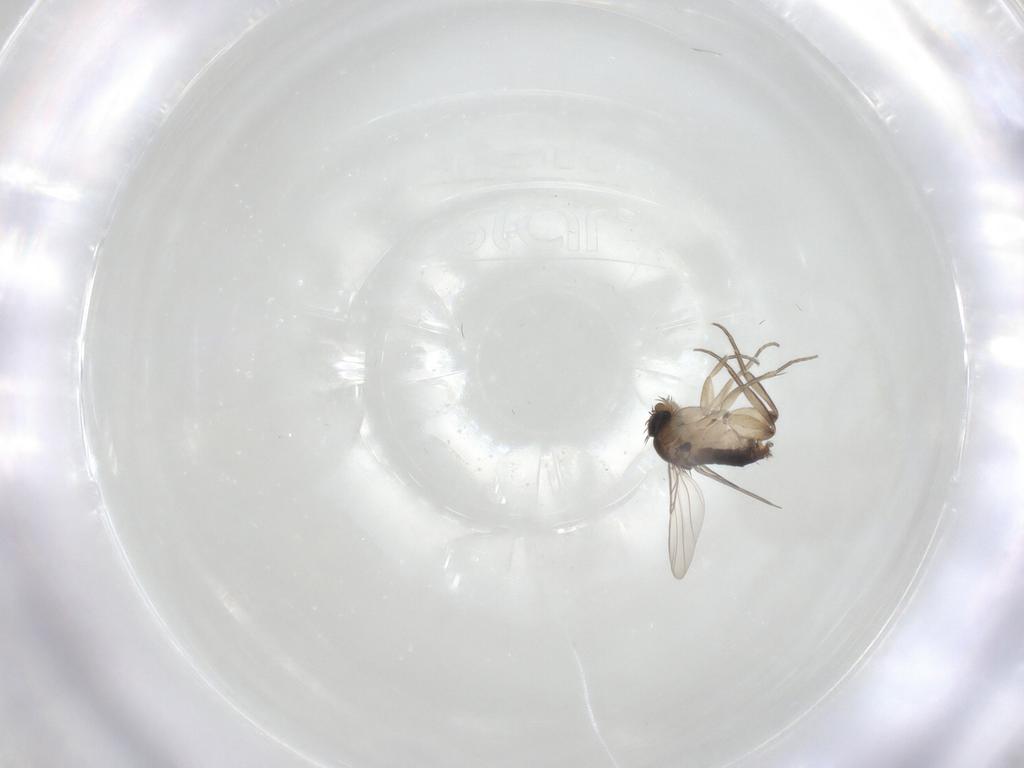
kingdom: Animalia
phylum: Arthropoda
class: Insecta
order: Diptera
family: Phoridae
